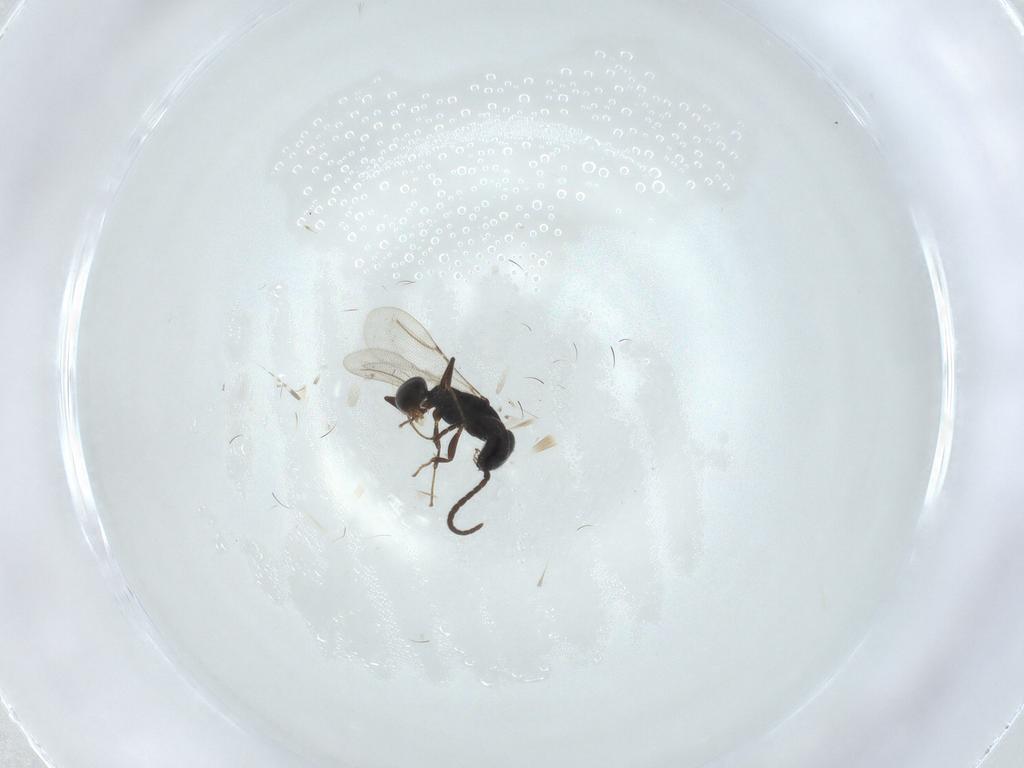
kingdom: Animalia
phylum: Arthropoda
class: Insecta
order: Hymenoptera
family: Bethylidae
